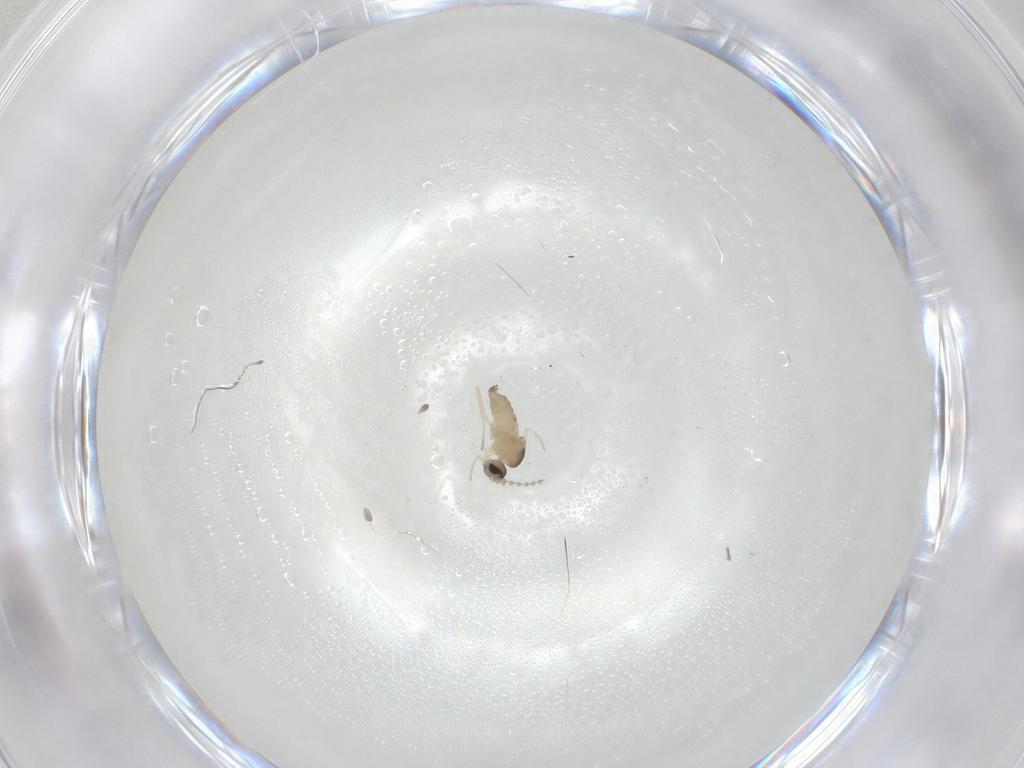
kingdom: Animalia
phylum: Arthropoda
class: Insecta
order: Diptera
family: Cecidomyiidae
